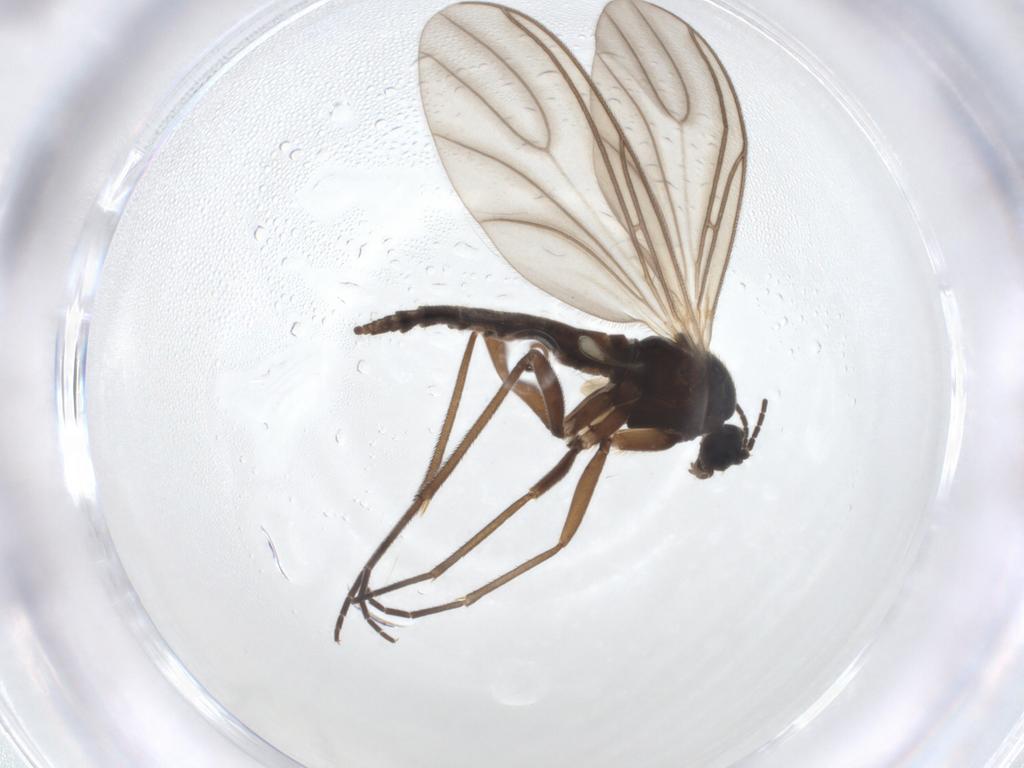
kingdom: Animalia
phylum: Arthropoda
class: Insecta
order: Diptera
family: Sciaridae
